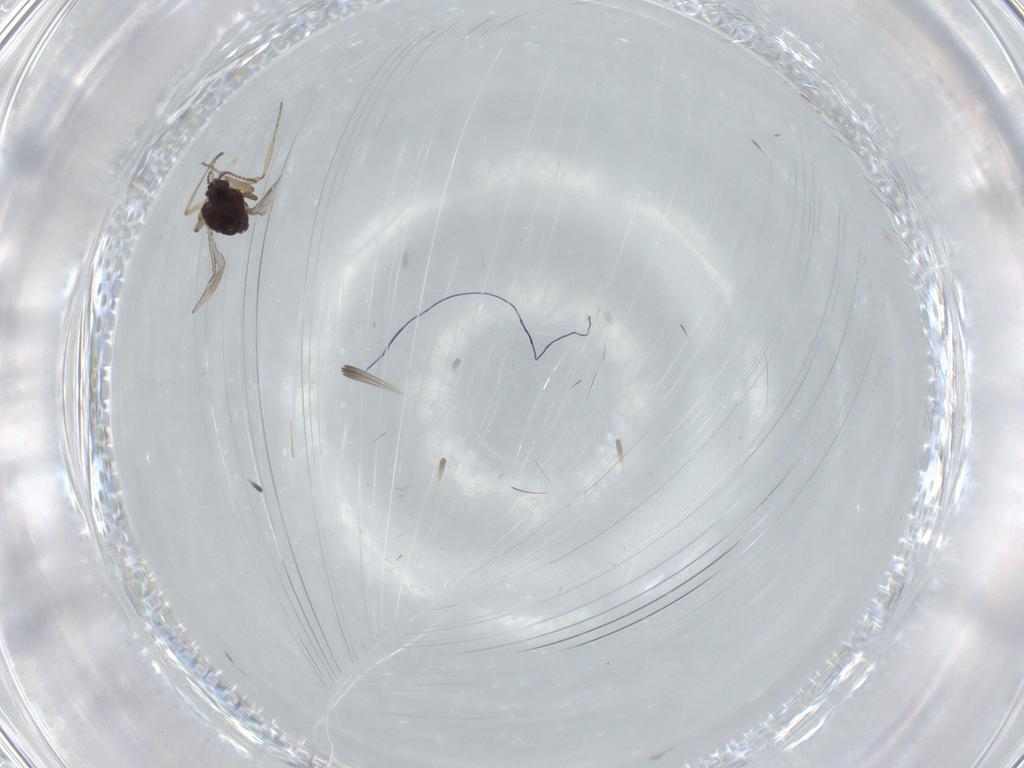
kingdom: Animalia
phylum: Arthropoda
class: Insecta
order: Diptera
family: Ceratopogonidae
